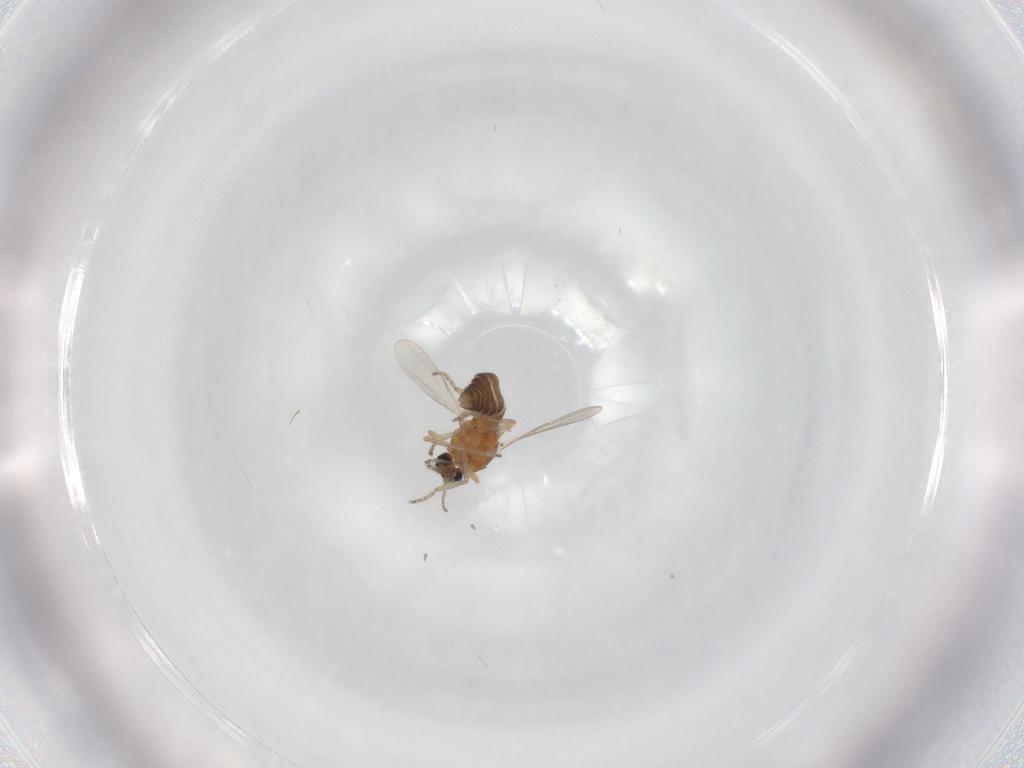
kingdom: Animalia
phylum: Arthropoda
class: Insecta
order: Diptera
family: Ceratopogonidae
